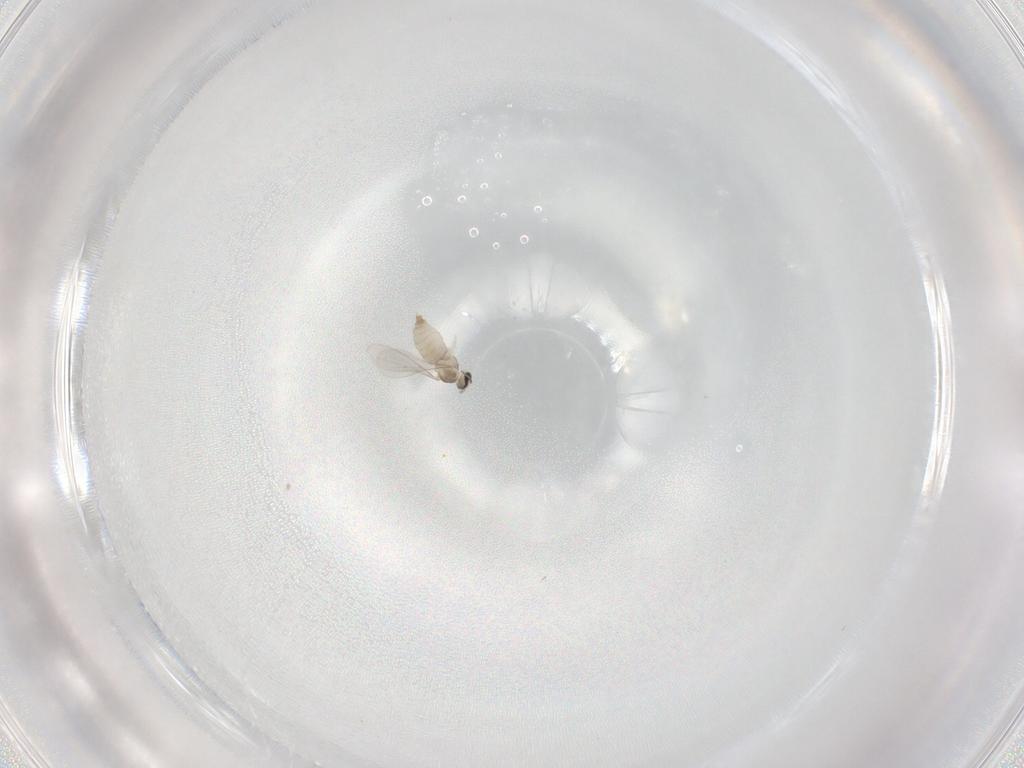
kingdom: Animalia
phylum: Arthropoda
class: Insecta
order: Diptera
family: Cecidomyiidae
